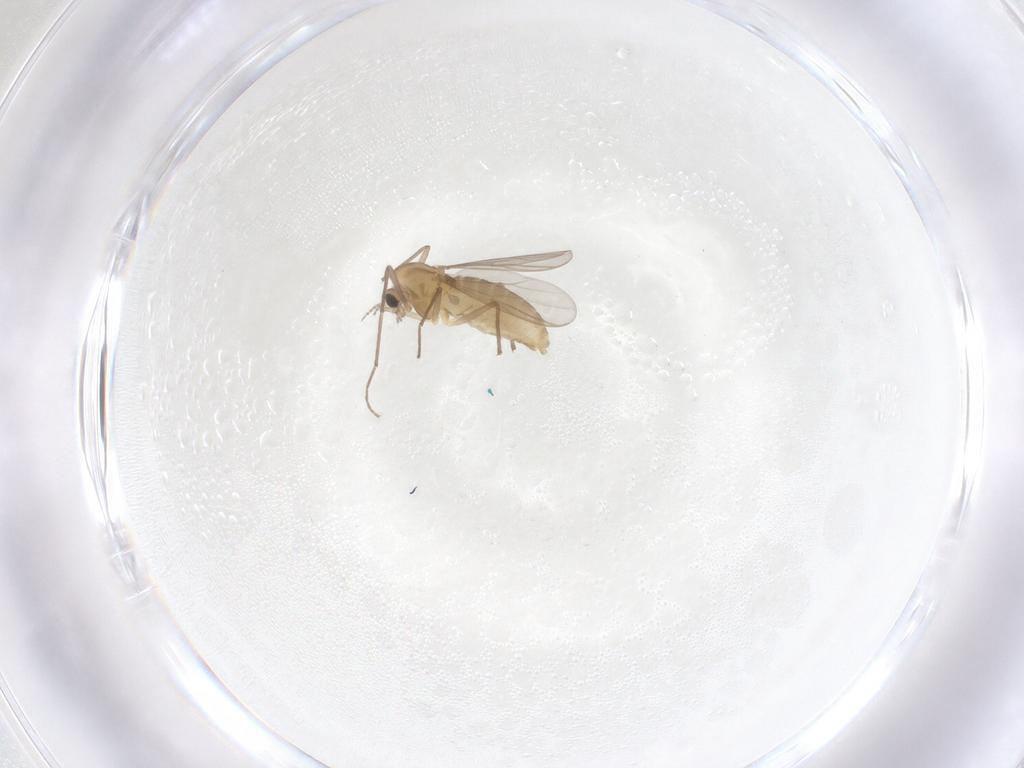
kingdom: Animalia
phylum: Arthropoda
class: Insecta
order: Diptera
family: Chironomidae
